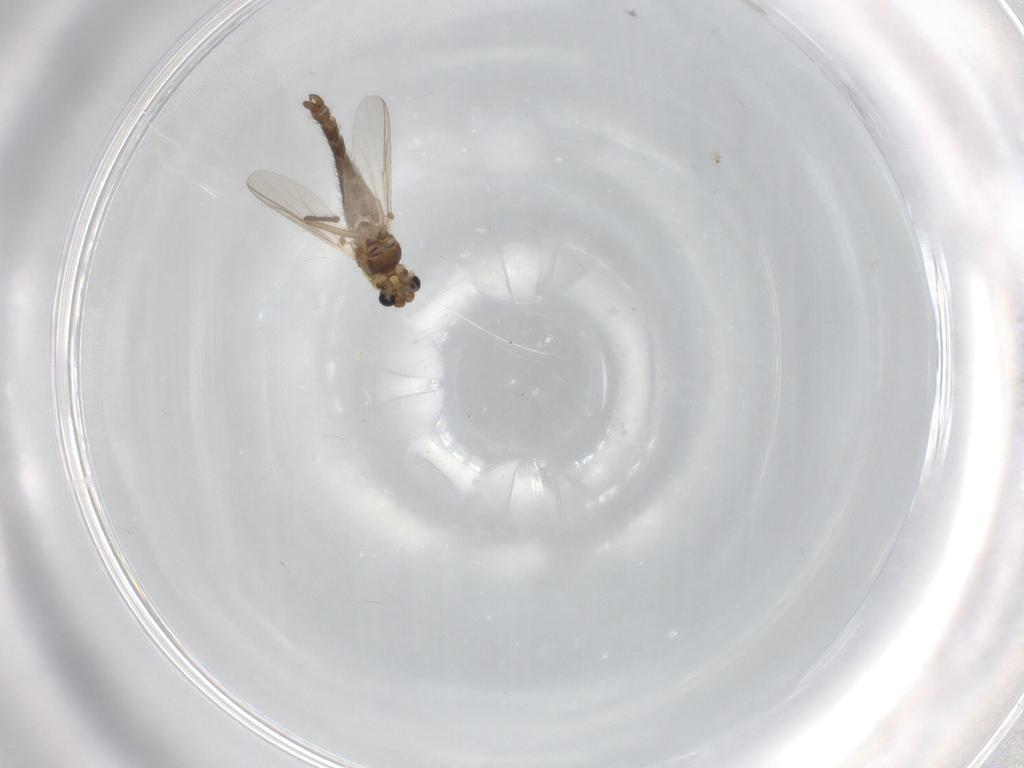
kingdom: Animalia
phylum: Arthropoda
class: Insecta
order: Diptera
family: Chironomidae
